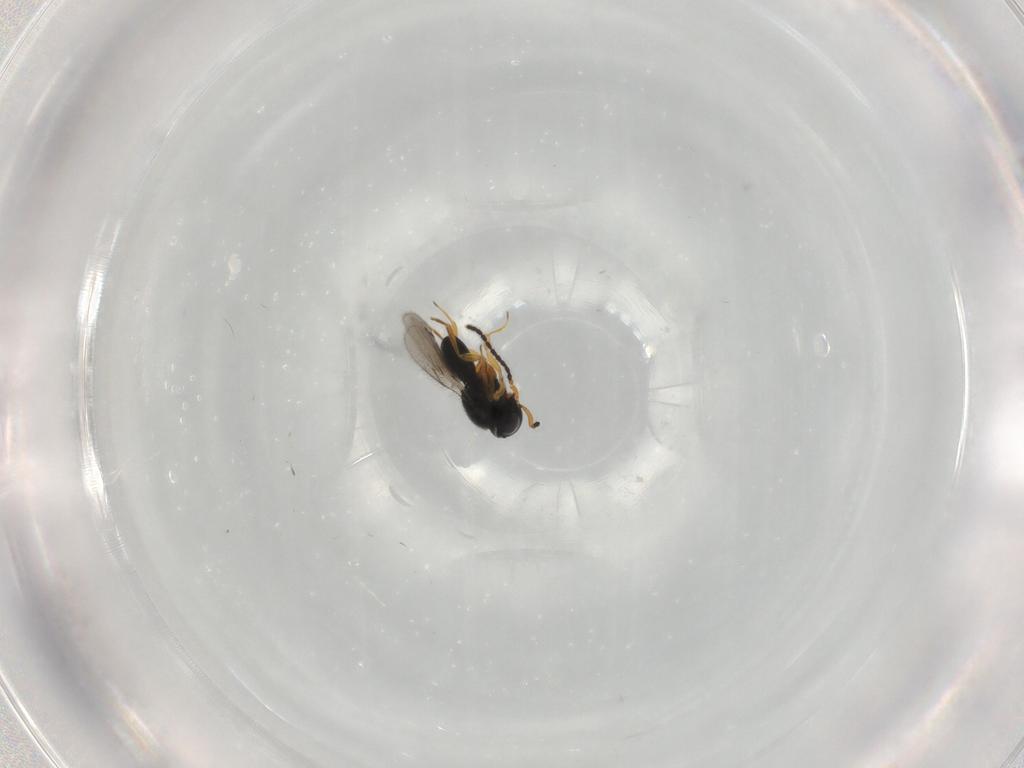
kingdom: Animalia
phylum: Arthropoda
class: Insecta
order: Hymenoptera
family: Scelionidae
